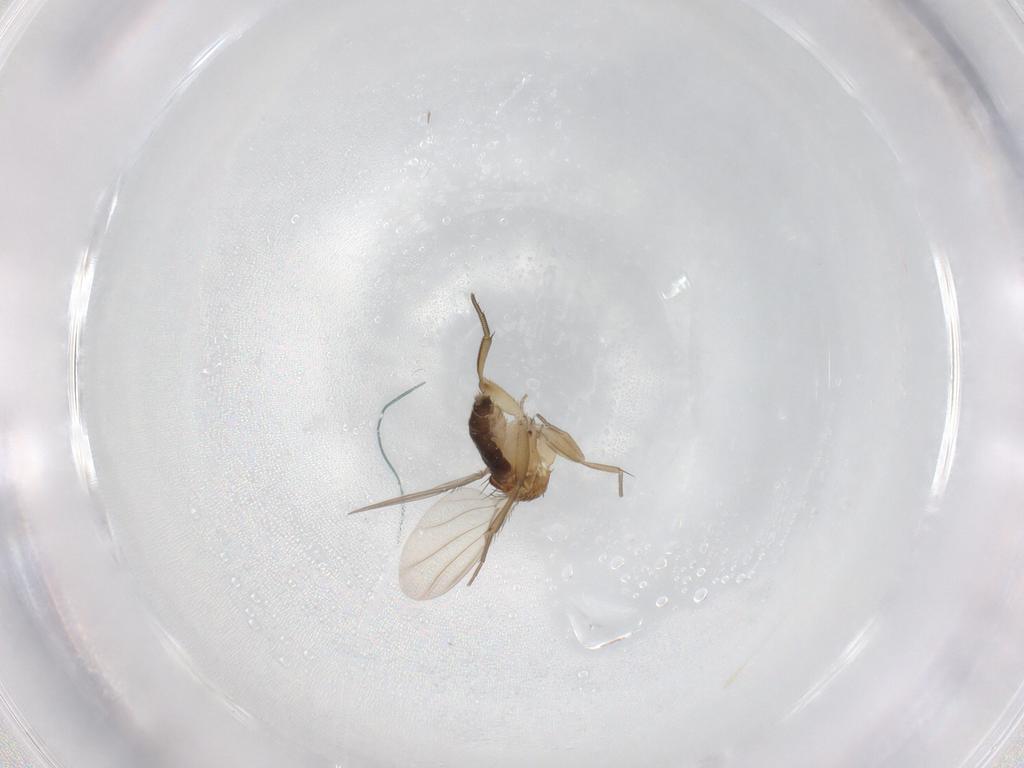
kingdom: Animalia
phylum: Arthropoda
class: Insecta
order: Diptera
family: Phoridae
